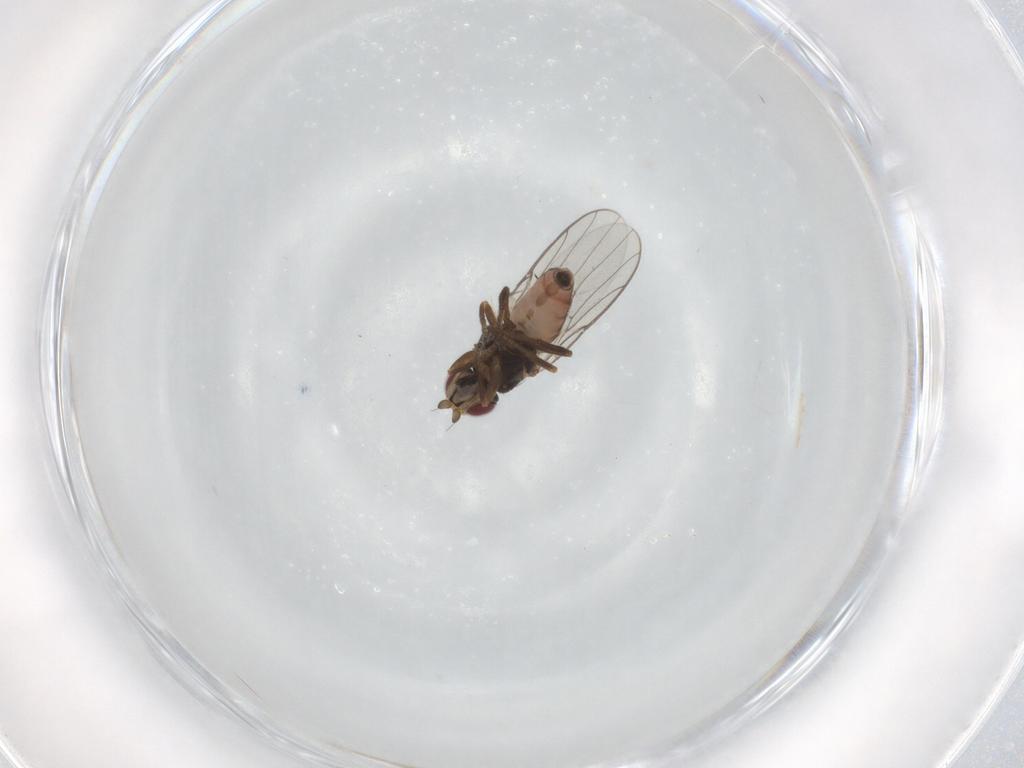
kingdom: Animalia
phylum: Arthropoda
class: Insecta
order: Diptera
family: Chloropidae
